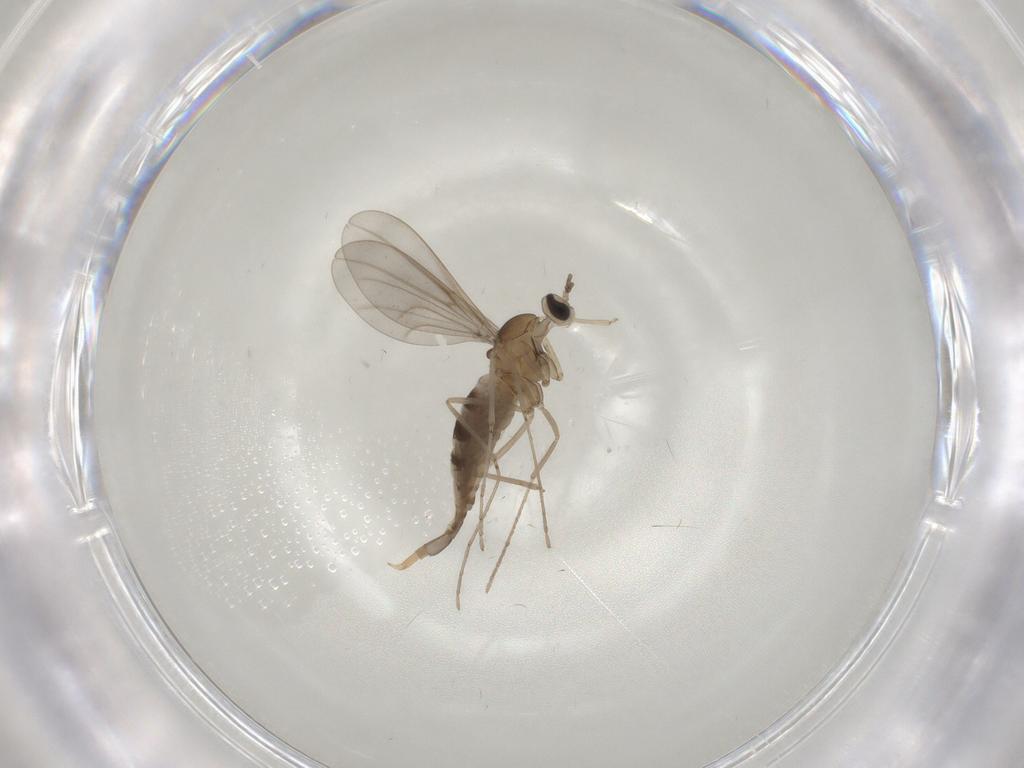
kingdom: Animalia
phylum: Arthropoda
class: Insecta
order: Diptera
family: Cecidomyiidae
